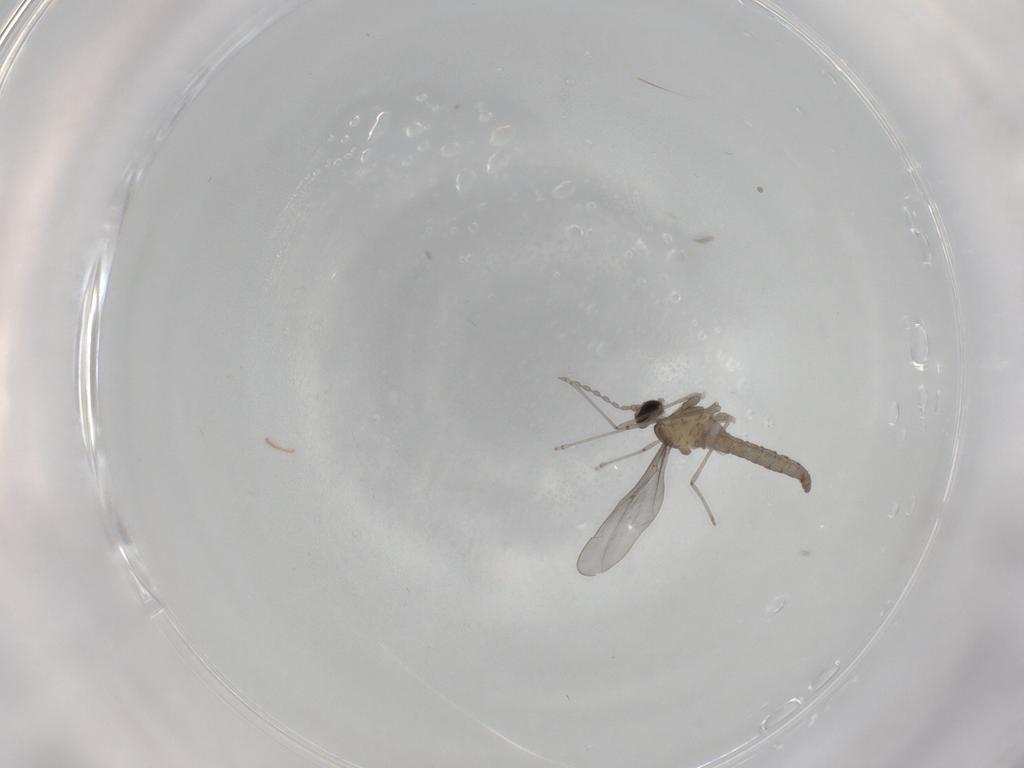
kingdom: Animalia
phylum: Arthropoda
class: Insecta
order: Diptera
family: Cecidomyiidae
